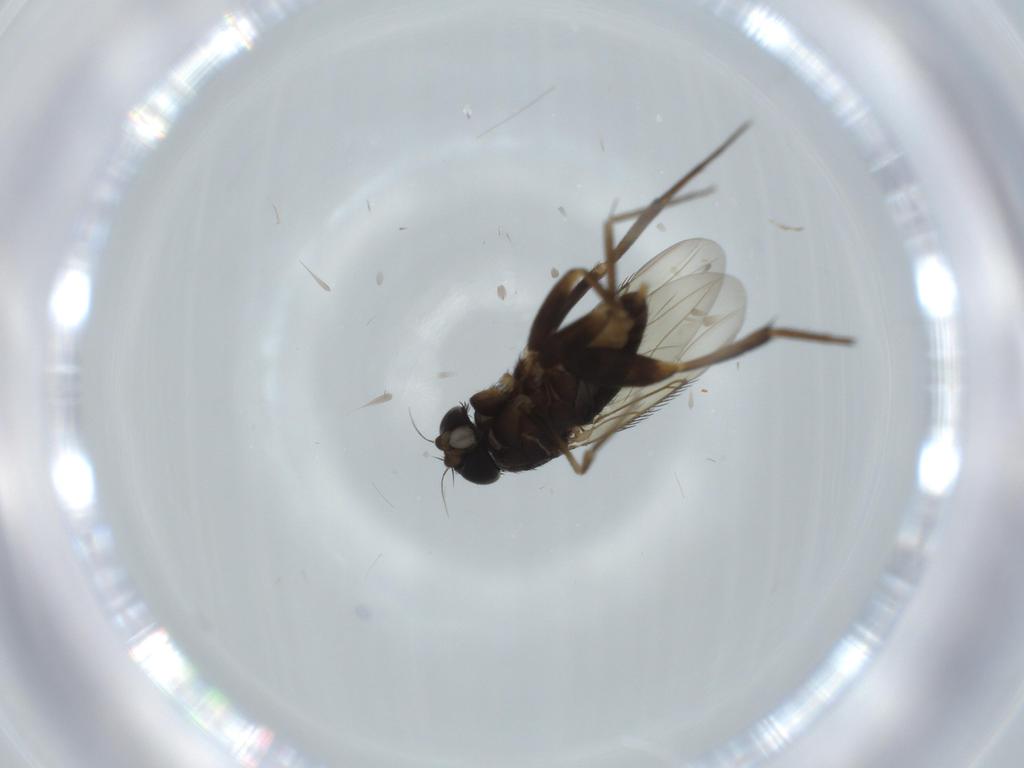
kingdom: Animalia
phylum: Arthropoda
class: Insecta
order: Diptera
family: Phoridae
